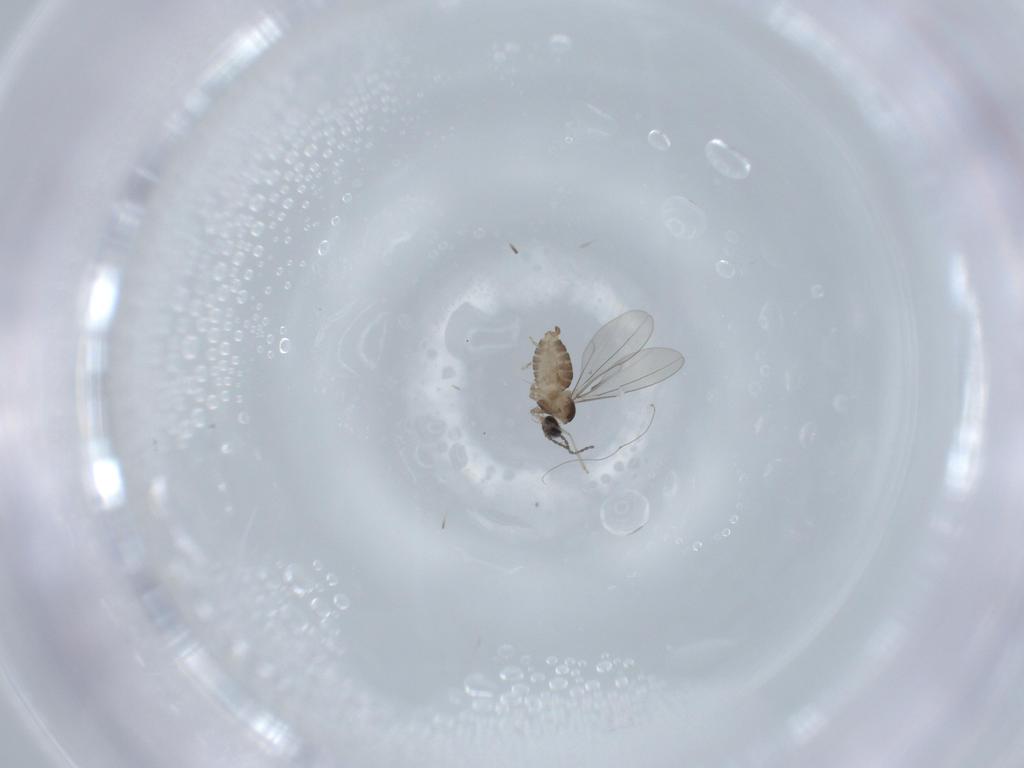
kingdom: Animalia
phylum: Arthropoda
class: Insecta
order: Diptera
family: Cecidomyiidae
